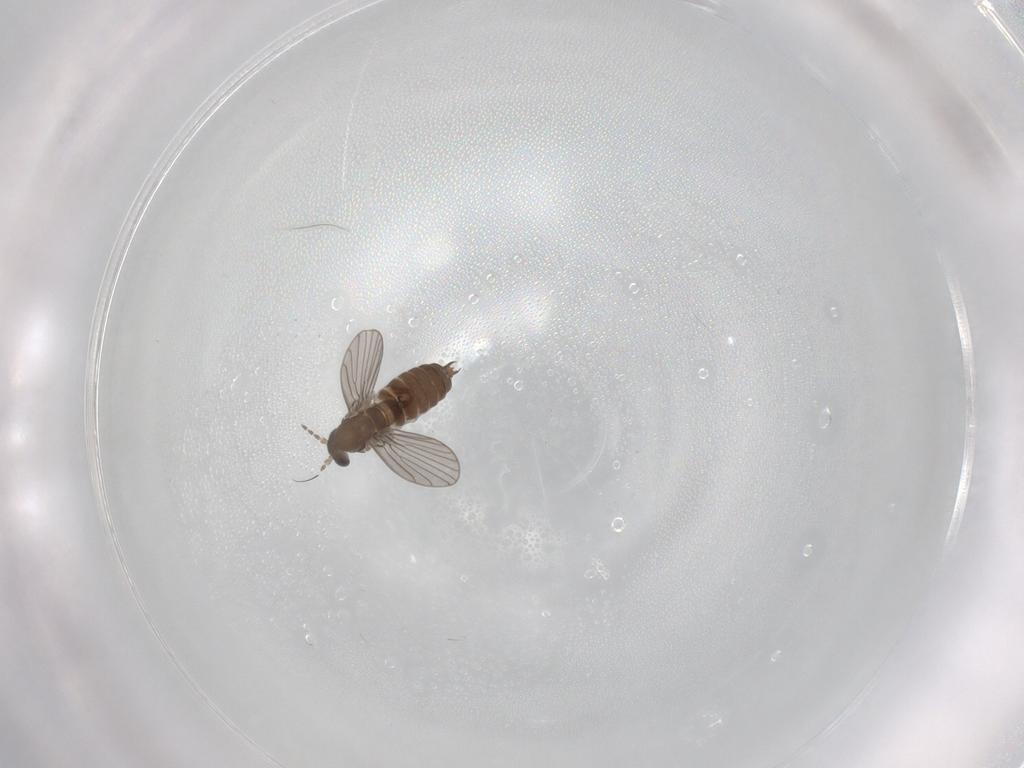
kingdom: Animalia
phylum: Arthropoda
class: Insecta
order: Diptera
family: Phoridae
